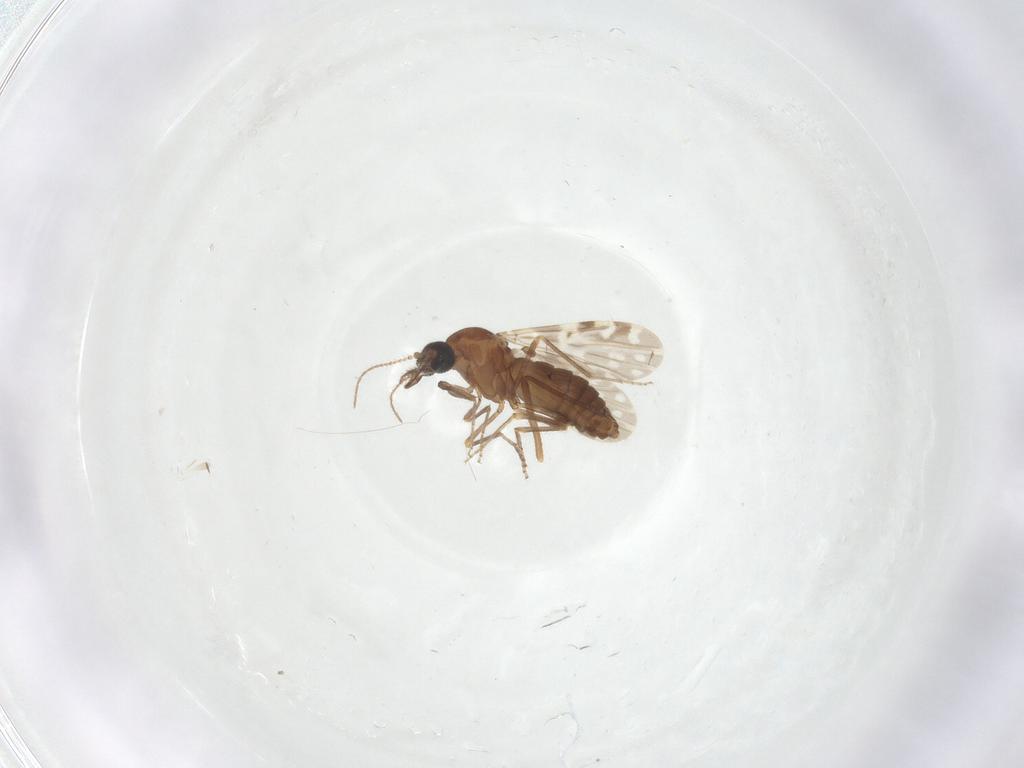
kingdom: Animalia
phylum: Arthropoda
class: Insecta
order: Diptera
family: Ceratopogonidae
